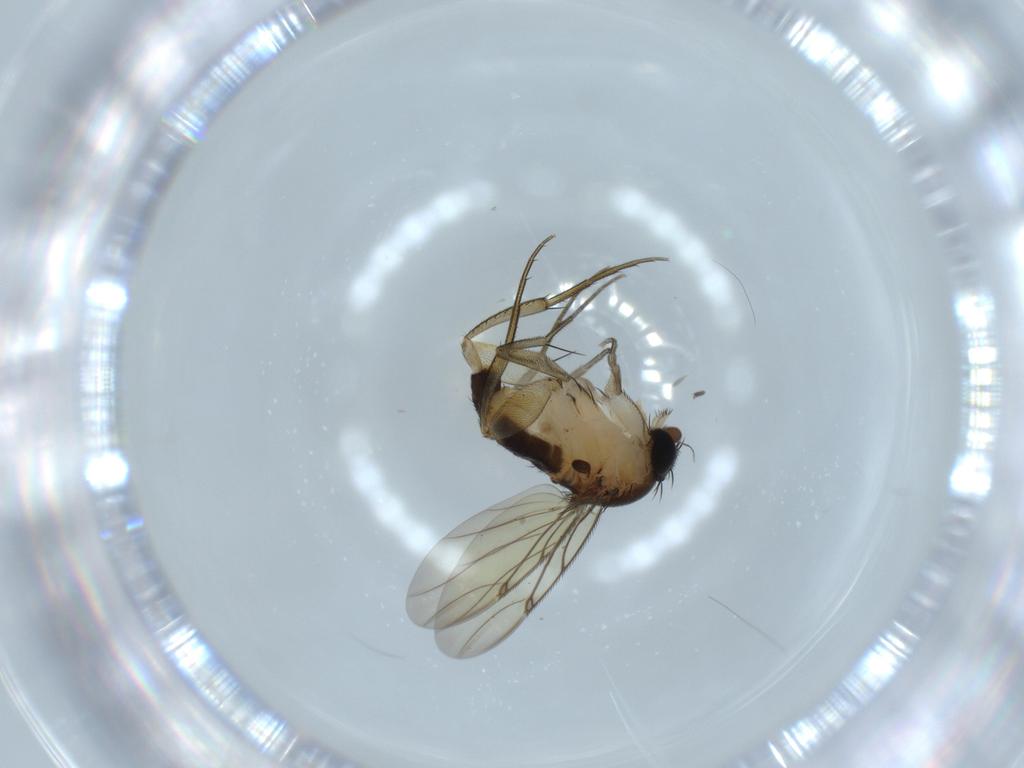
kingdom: Animalia
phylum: Arthropoda
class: Insecta
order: Diptera
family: Sciaridae
